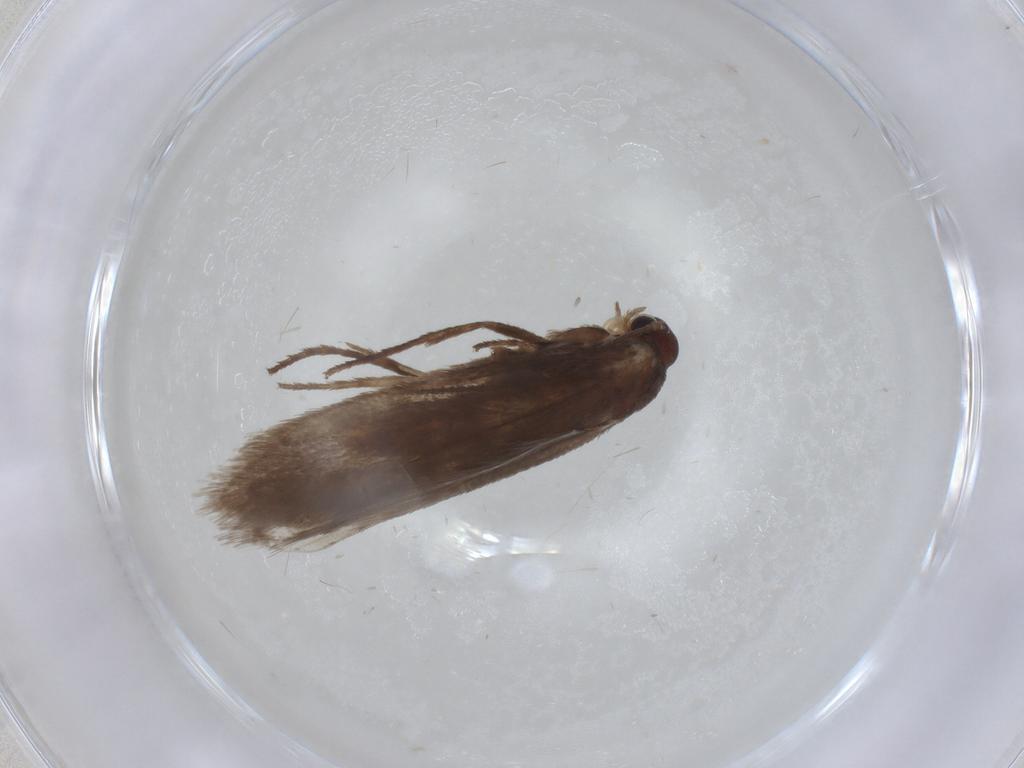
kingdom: Animalia
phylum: Arthropoda
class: Insecta
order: Lepidoptera
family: Limacodidae
